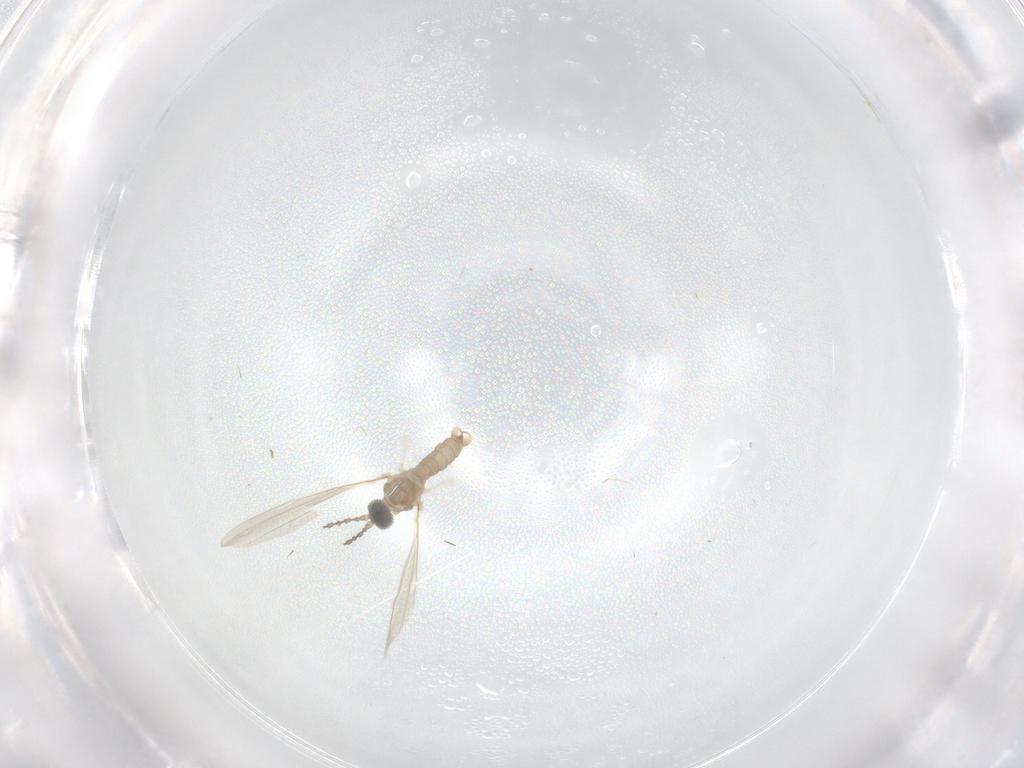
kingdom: Animalia
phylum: Arthropoda
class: Insecta
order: Diptera
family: Cecidomyiidae
